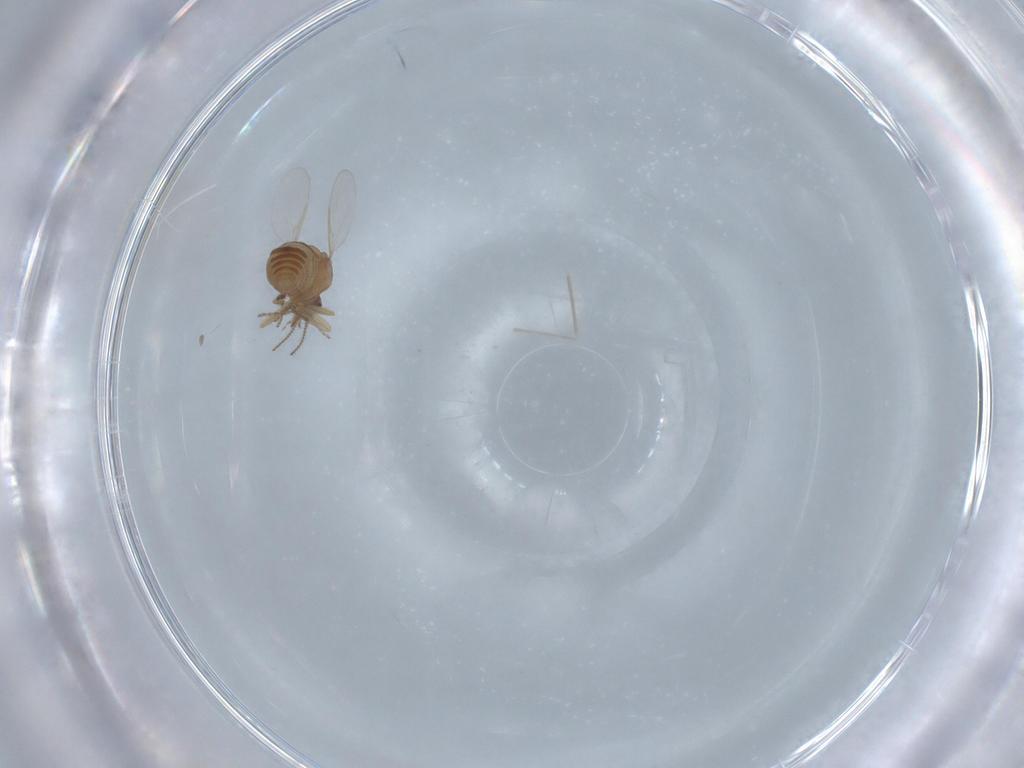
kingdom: Animalia
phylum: Arthropoda
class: Insecta
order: Diptera
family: Ceratopogonidae
